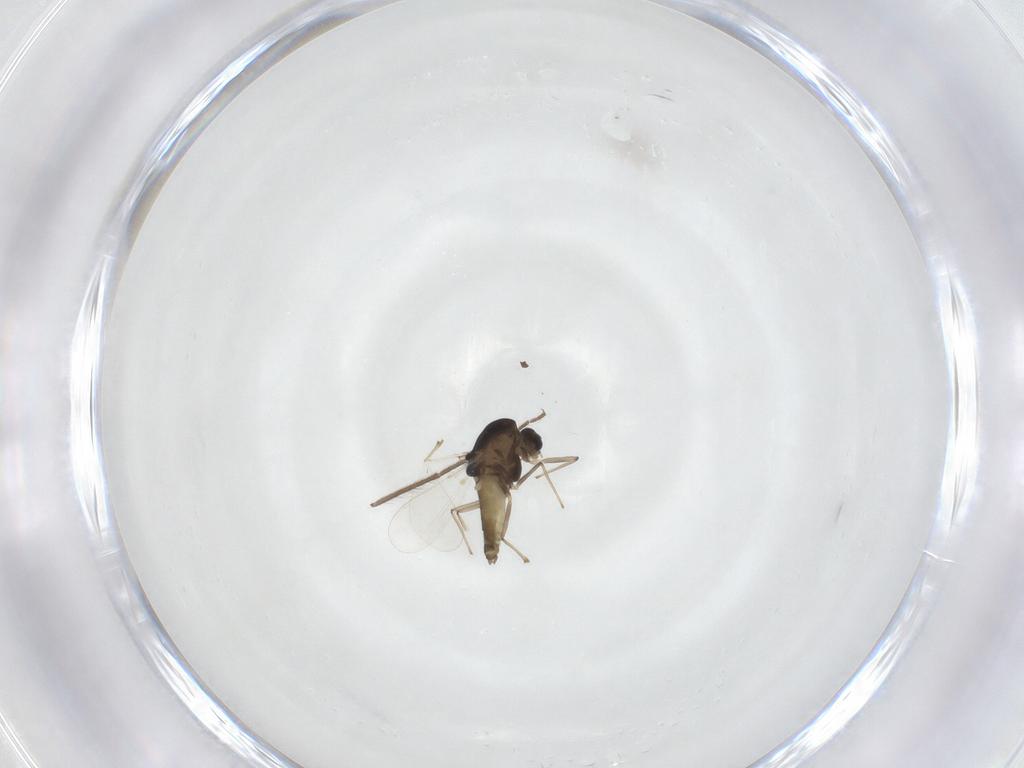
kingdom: Animalia
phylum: Arthropoda
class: Insecta
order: Diptera
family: Chironomidae
